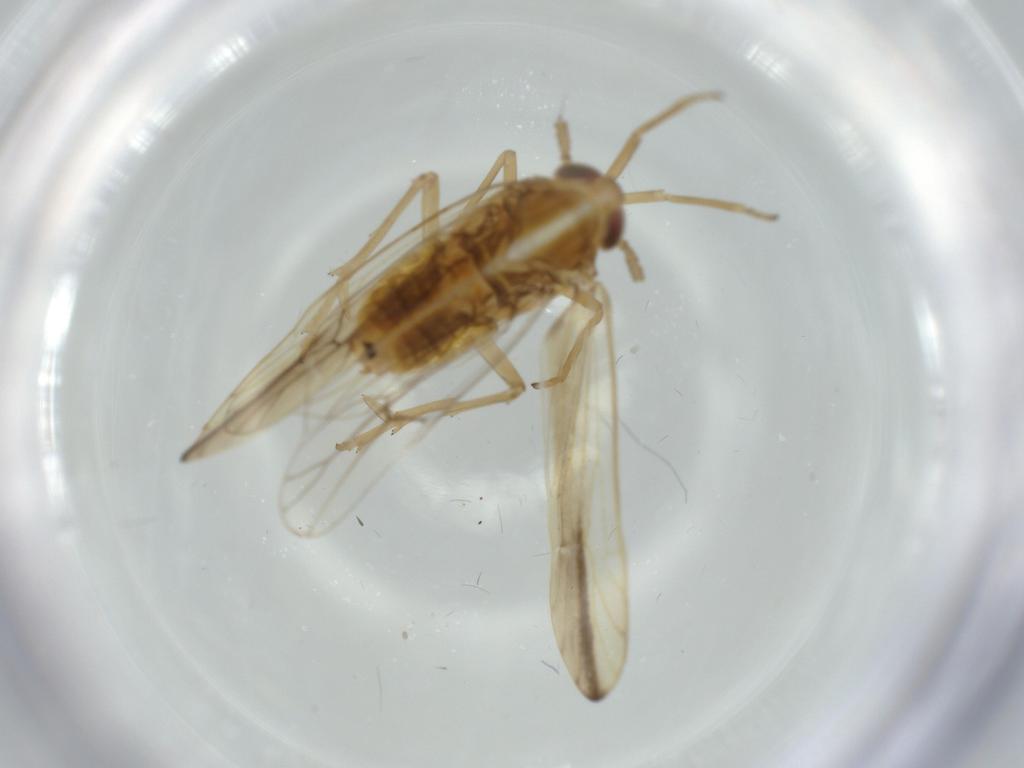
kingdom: Animalia
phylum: Arthropoda
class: Insecta
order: Hemiptera
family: Delphacidae
